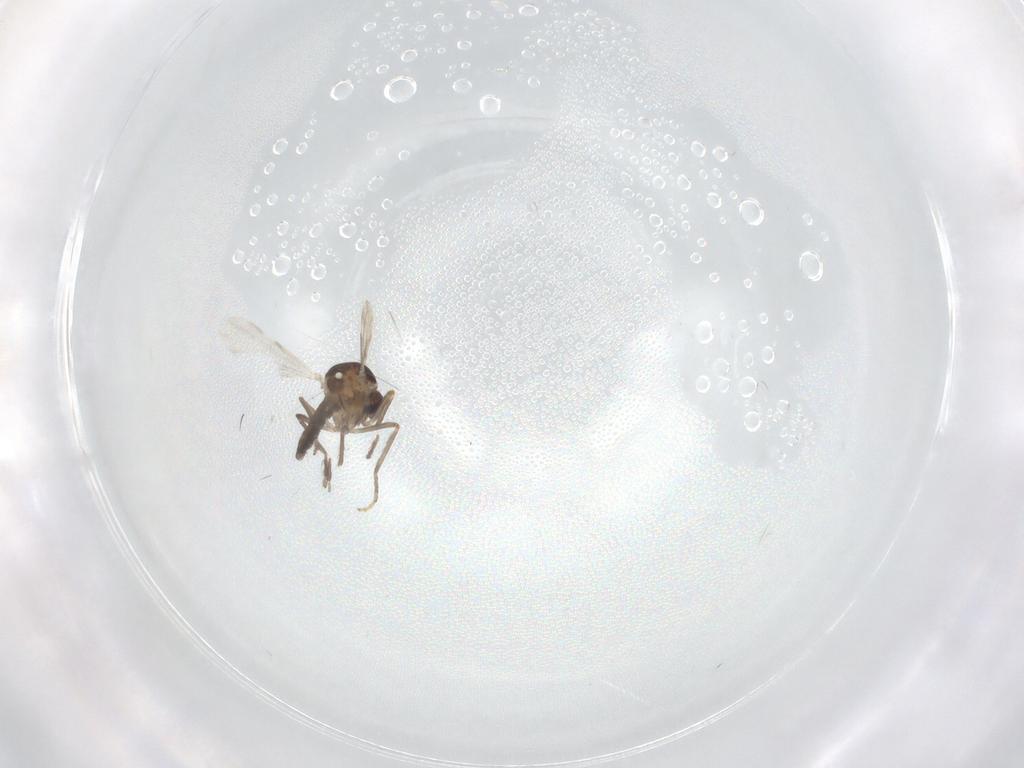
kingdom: Animalia
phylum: Arthropoda
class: Insecta
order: Diptera
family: Ceratopogonidae
